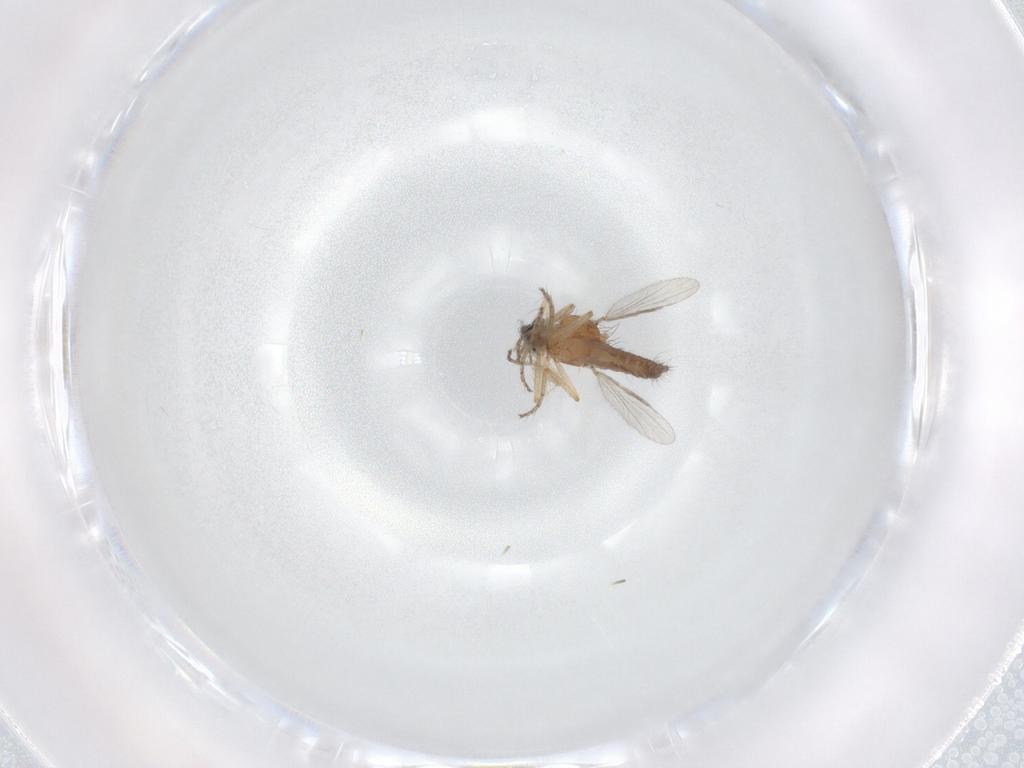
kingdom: Animalia
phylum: Arthropoda
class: Insecta
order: Diptera
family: Ceratopogonidae
